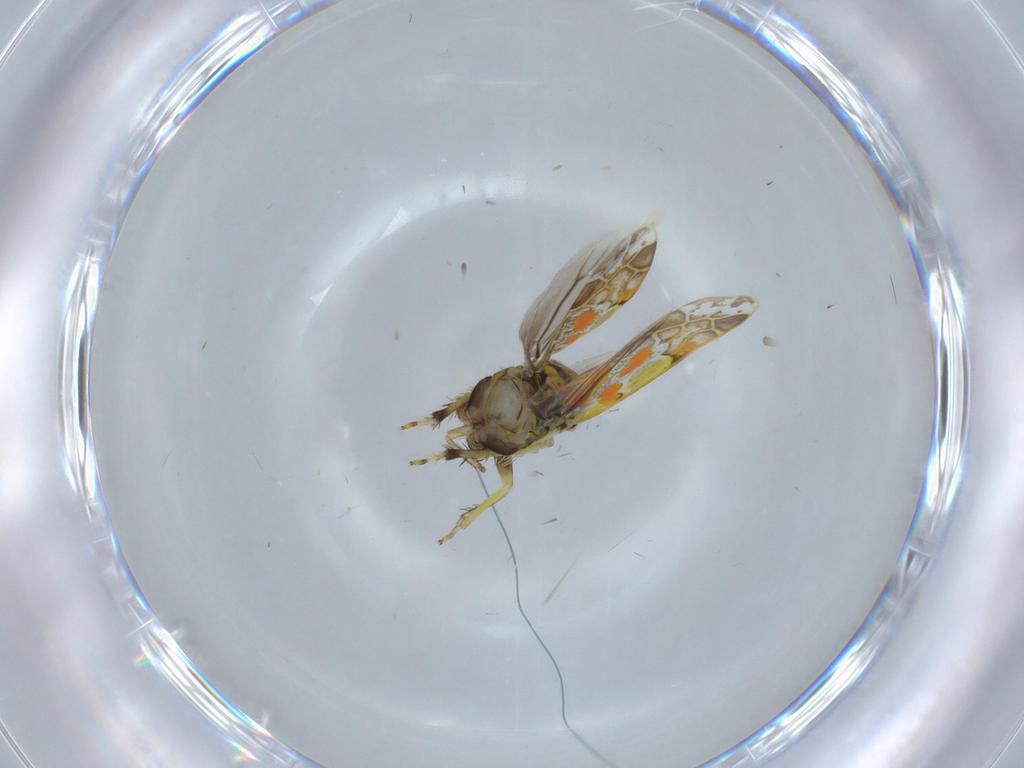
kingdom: Animalia
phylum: Arthropoda
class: Insecta
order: Hemiptera
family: Cicadellidae
